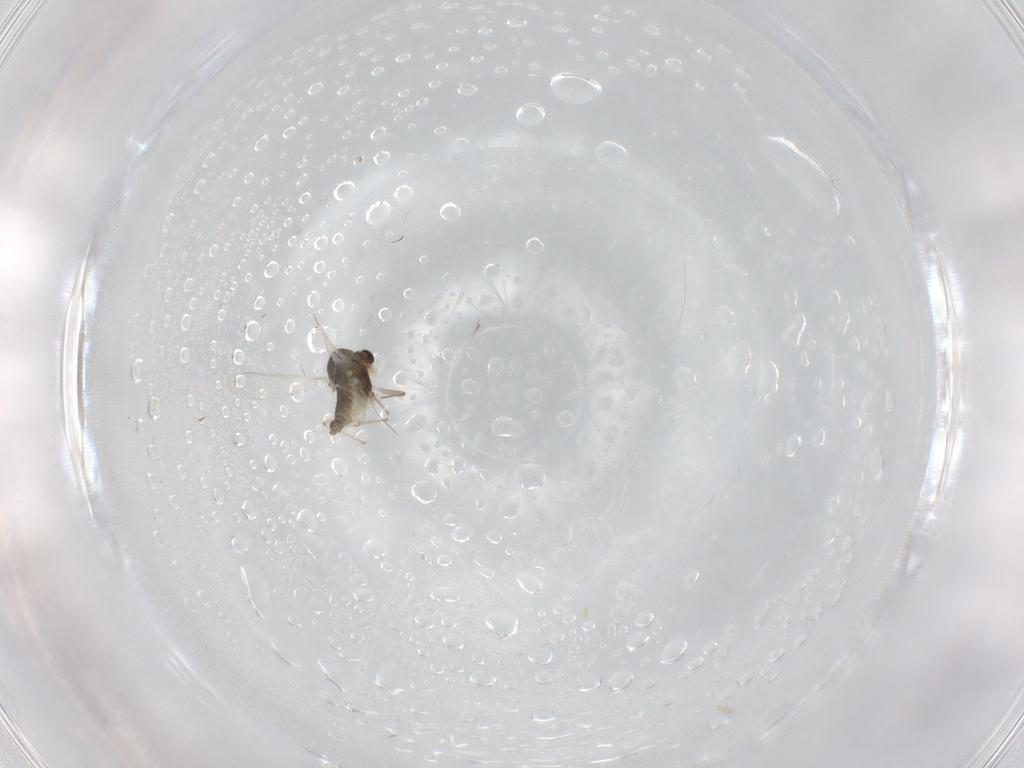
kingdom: Animalia
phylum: Arthropoda
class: Insecta
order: Diptera
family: Chironomidae
